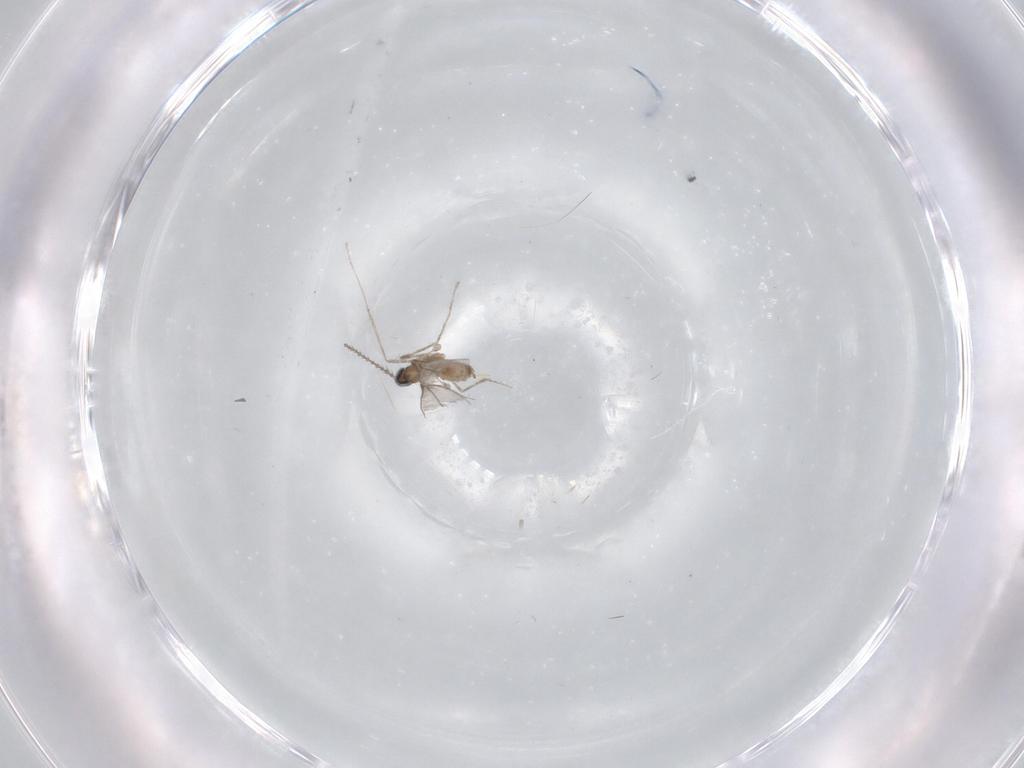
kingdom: Animalia
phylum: Arthropoda
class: Insecta
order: Diptera
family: Cecidomyiidae
